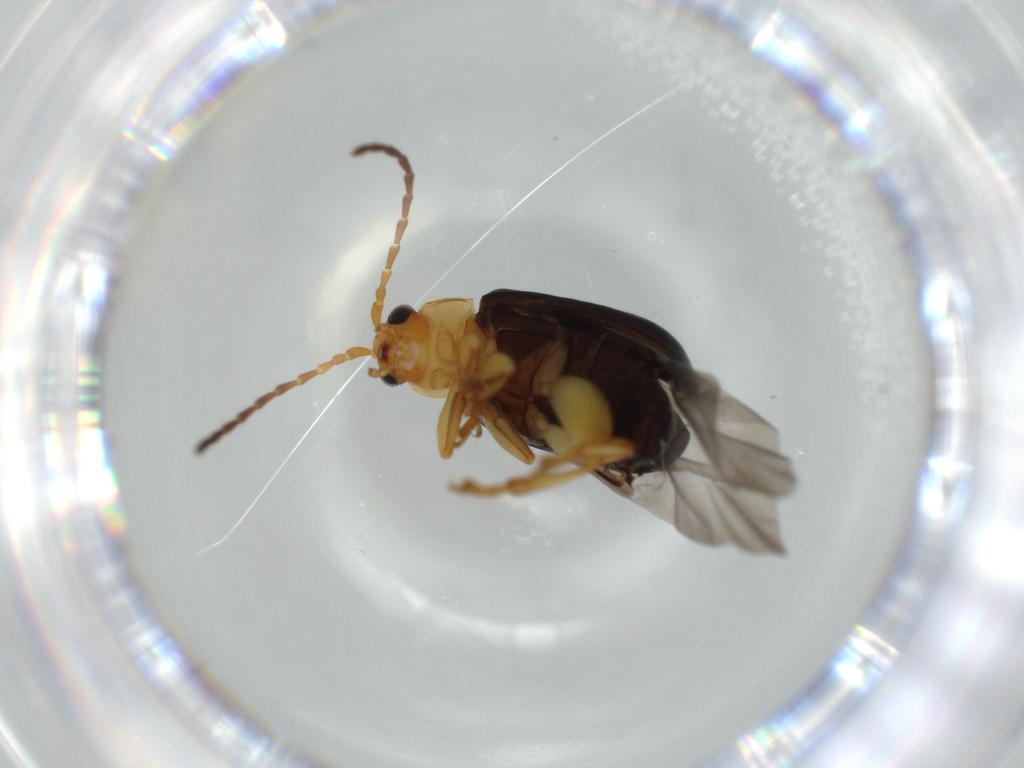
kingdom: Animalia
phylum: Arthropoda
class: Insecta
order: Coleoptera
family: Chrysomelidae
